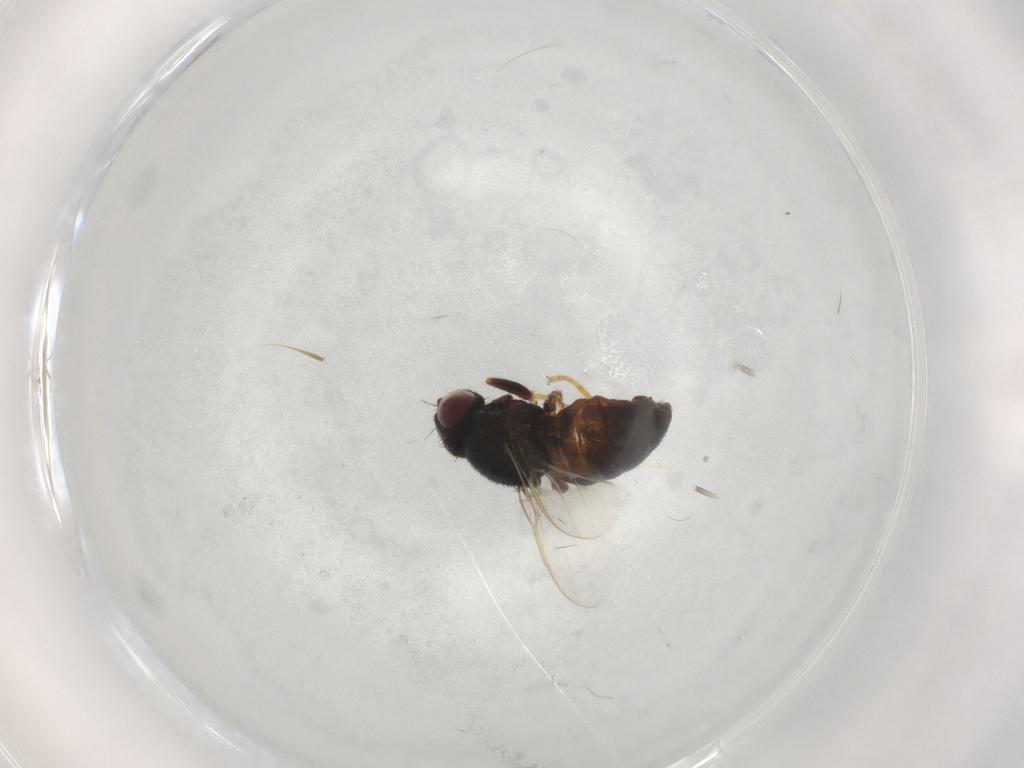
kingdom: Animalia
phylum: Arthropoda
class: Insecta
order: Diptera
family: Chloropidae
